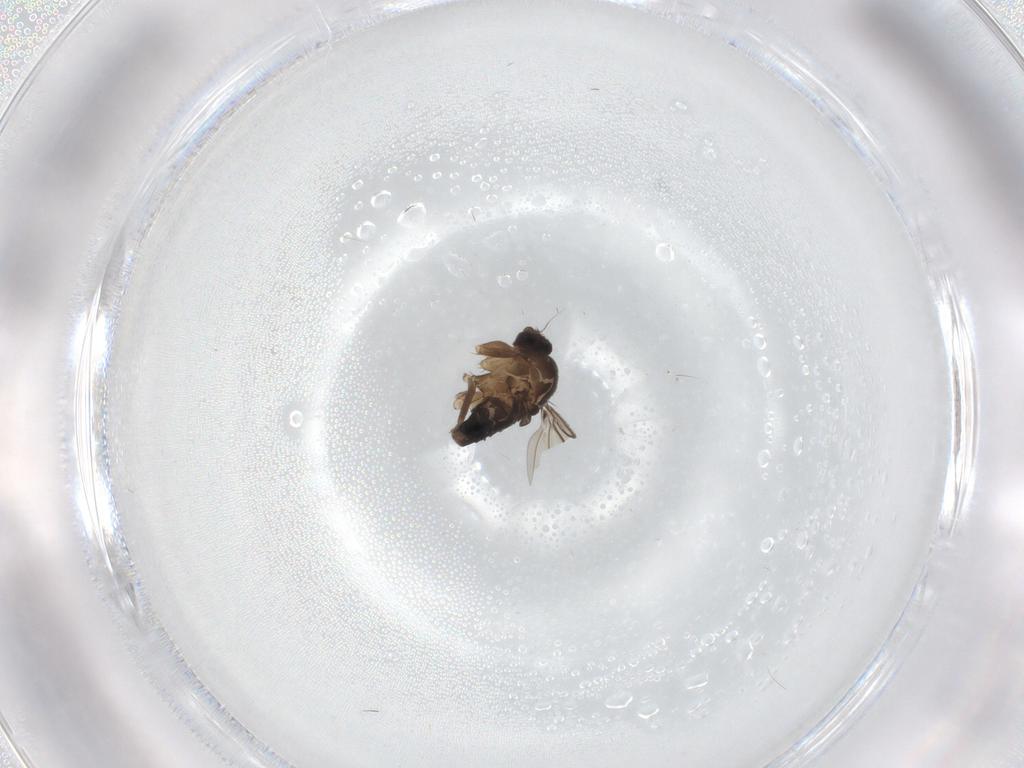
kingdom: Animalia
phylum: Arthropoda
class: Insecta
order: Diptera
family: Phoridae
